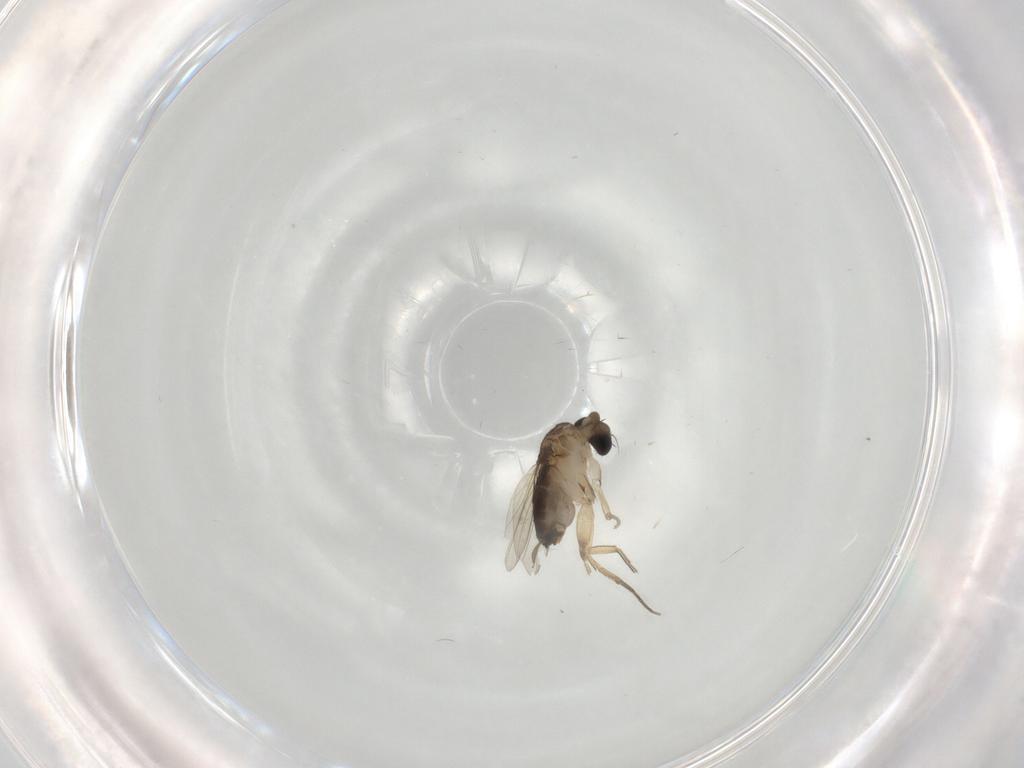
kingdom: Animalia
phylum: Arthropoda
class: Insecta
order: Diptera
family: Phoridae
